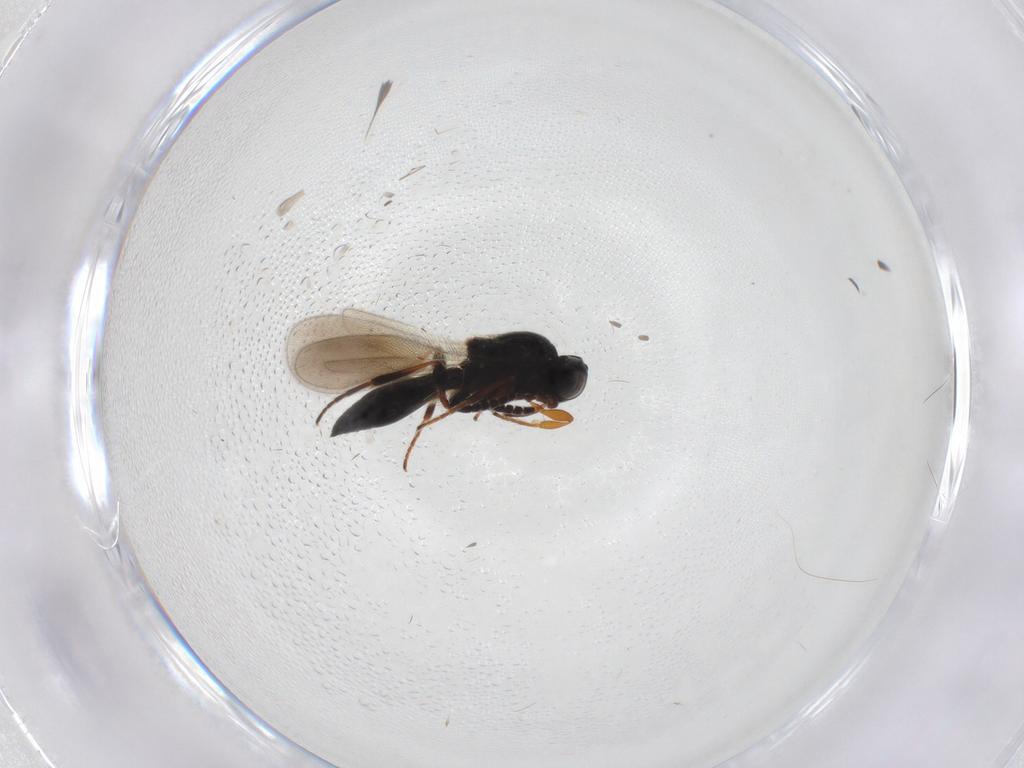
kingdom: Animalia
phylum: Arthropoda
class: Insecta
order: Hymenoptera
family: Platygastridae
